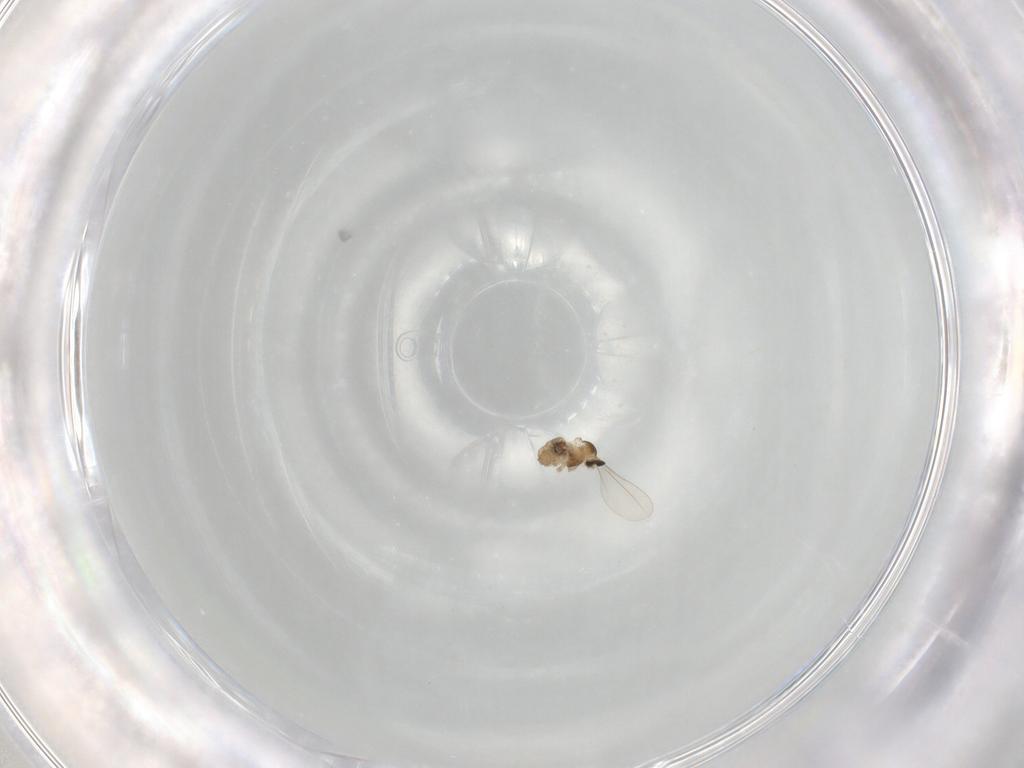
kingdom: Animalia
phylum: Arthropoda
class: Insecta
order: Diptera
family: Cecidomyiidae
